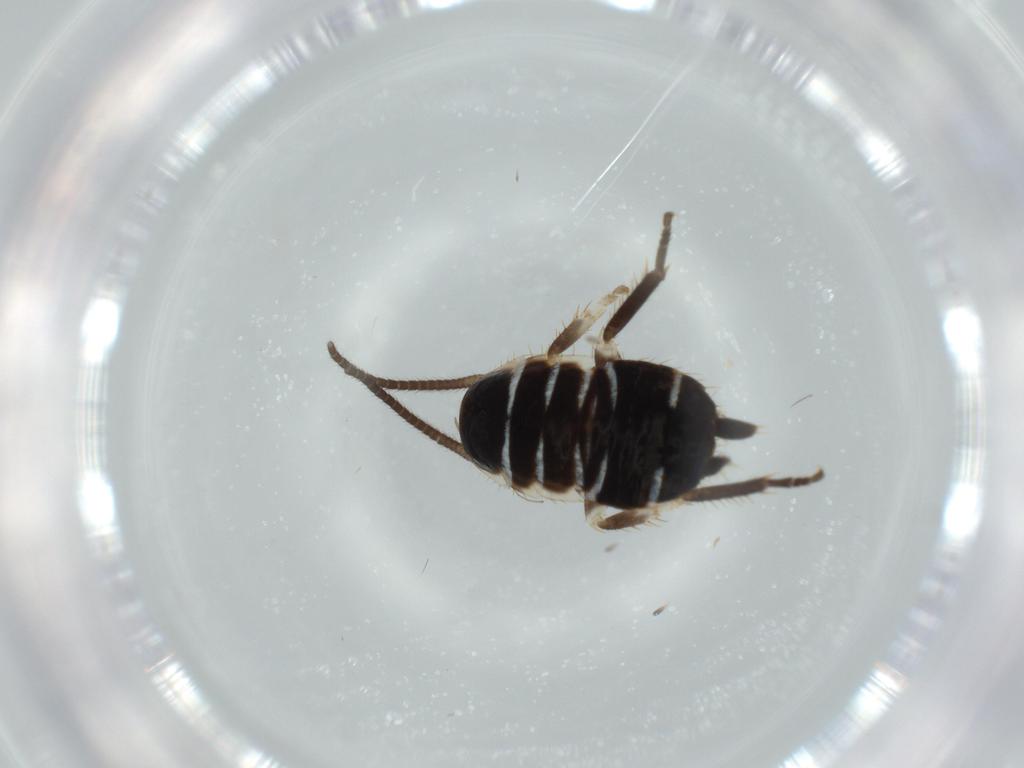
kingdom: Animalia
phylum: Arthropoda
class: Insecta
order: Blattodea
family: Ectobiidae
